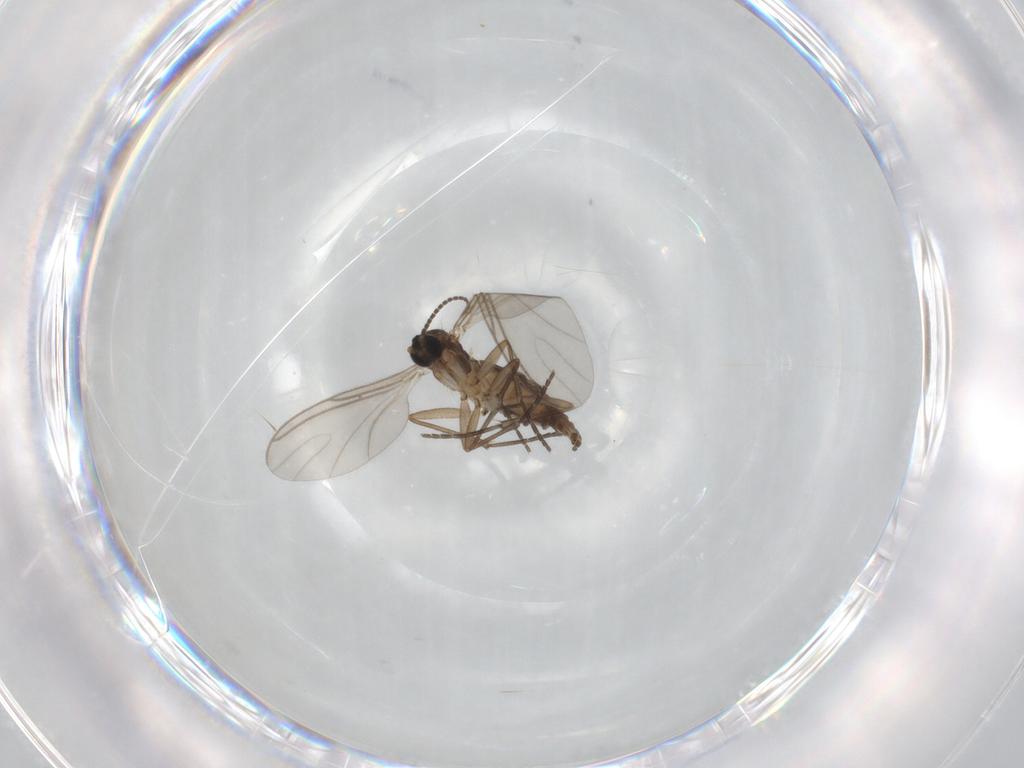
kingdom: Animalia
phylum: Arthropoda
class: Insecta
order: Diptera
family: Sciaridae
